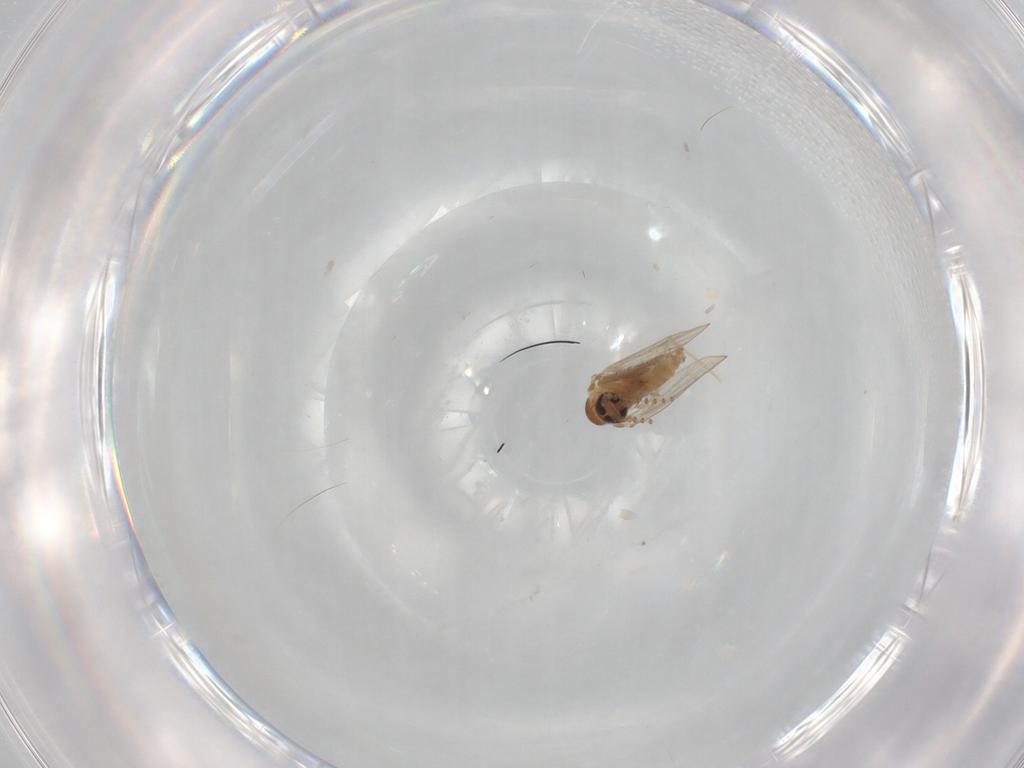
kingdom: Animalia
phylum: Arthropoda
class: Insecta
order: Diptera
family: Psychodidae
